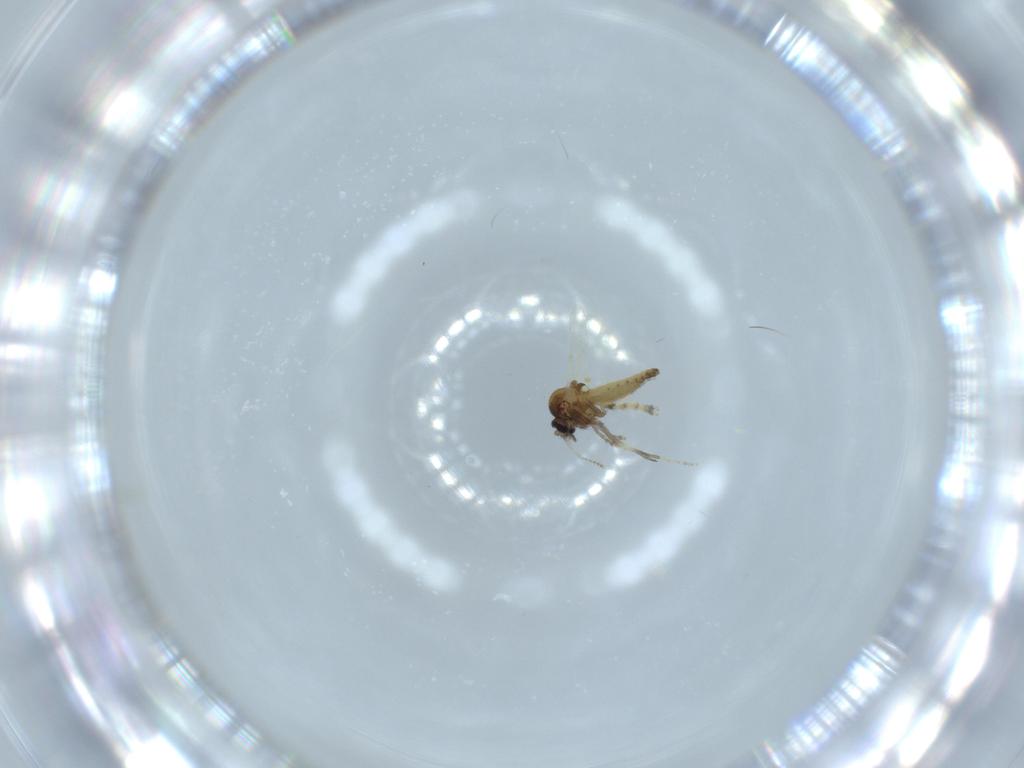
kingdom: Animalia
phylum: Arthropoda
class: Insecta
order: Diptera
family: Ceratopogonidae
